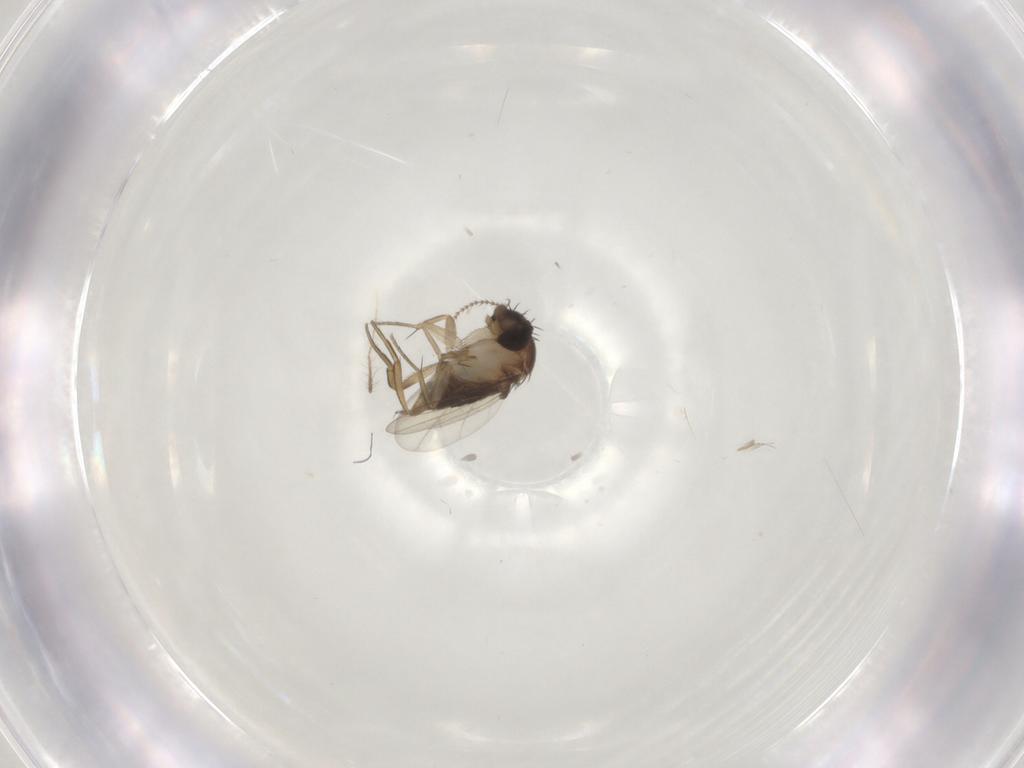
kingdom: Animalia
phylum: Arthropoda
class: Insecta
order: Diptera
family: Cecidomyiidae
